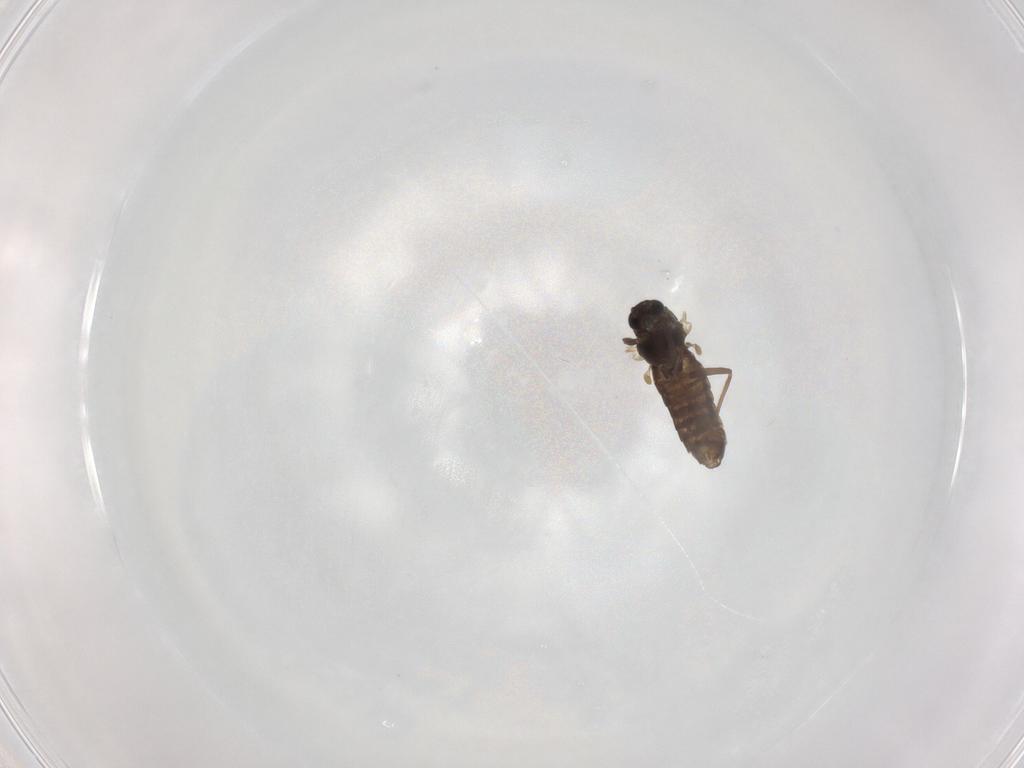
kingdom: Animalia
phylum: Arthropoda
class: Insecta
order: Diptera
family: Chironomidae
